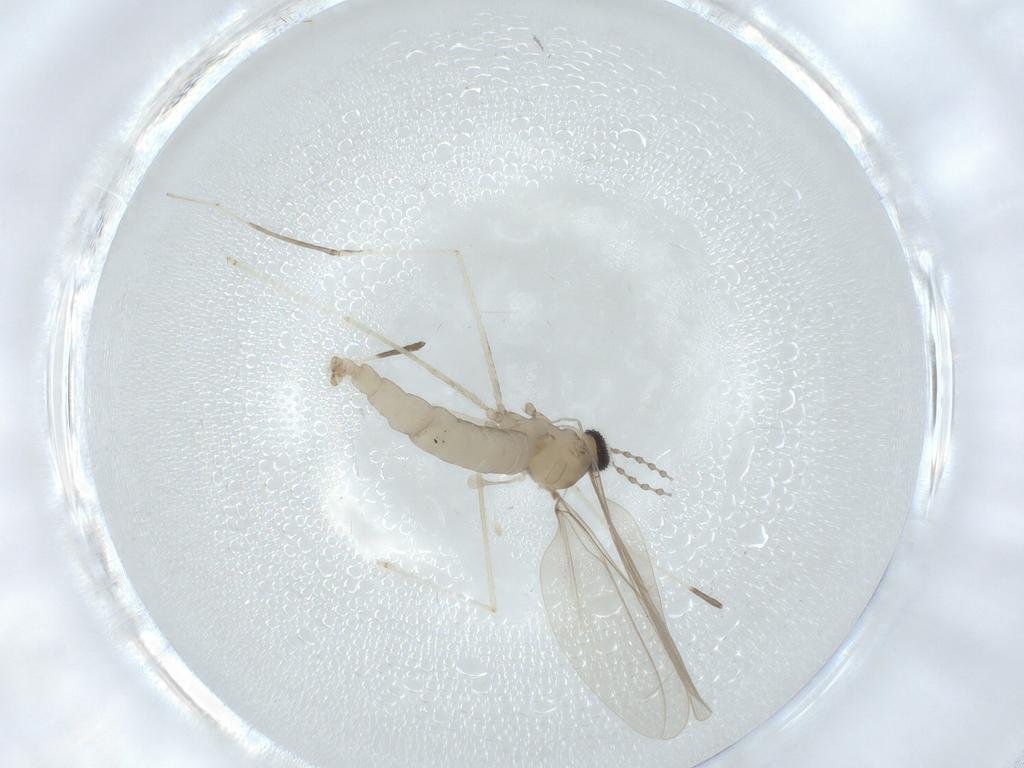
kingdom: Animalia
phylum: Arthropoda
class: Insecta
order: Diptera
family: Cecidomyiidae
